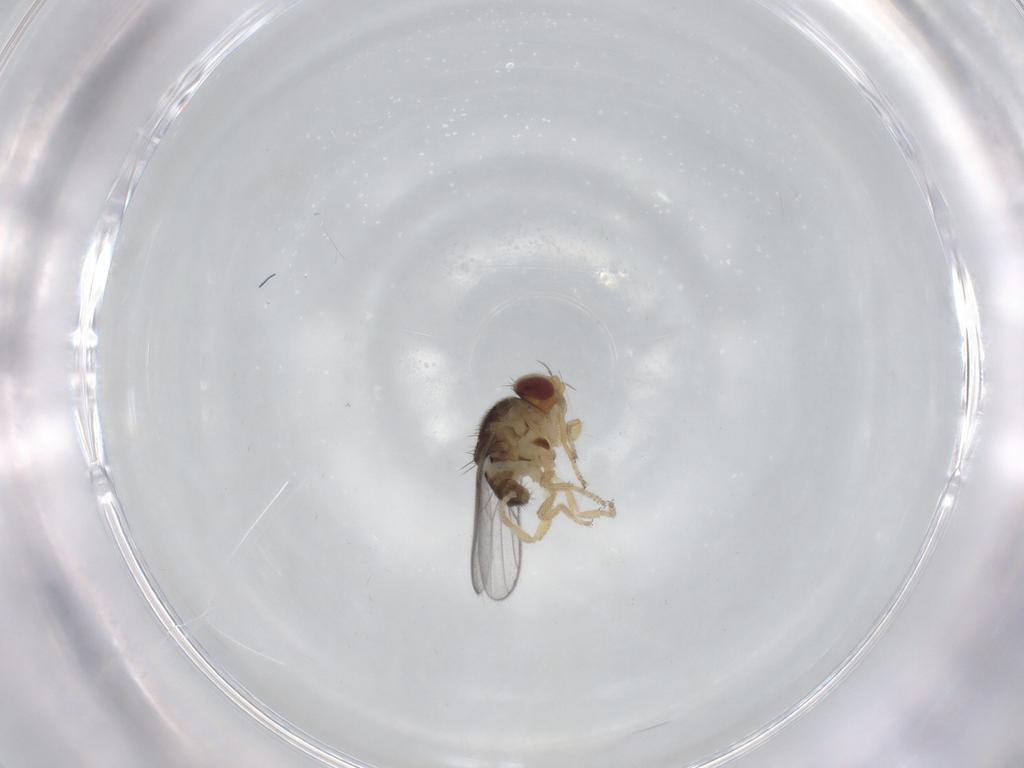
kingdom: Animalia
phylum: Arthropoda
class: Insecta
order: Diptera
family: Chloropidae
